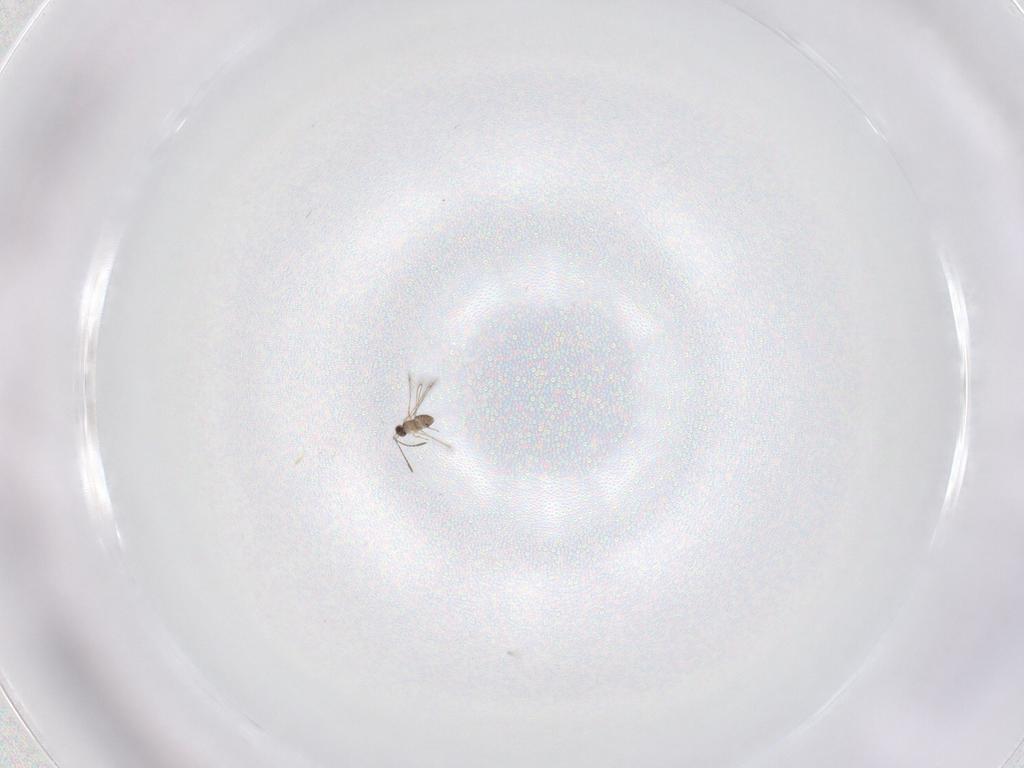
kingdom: Animalia
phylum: Arthropoda
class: Insecta
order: Hymenoptera
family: Mymaridae
